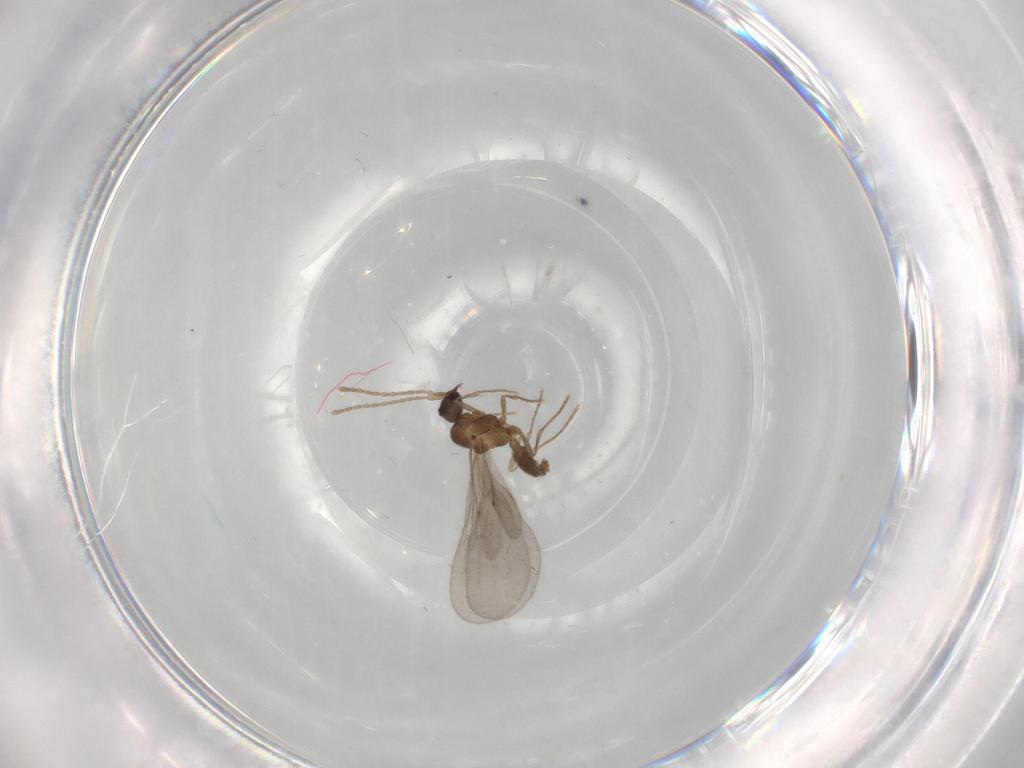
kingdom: Animalia
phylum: Arthropoda
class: Insecta
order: Hymenoptera
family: Formicidae
